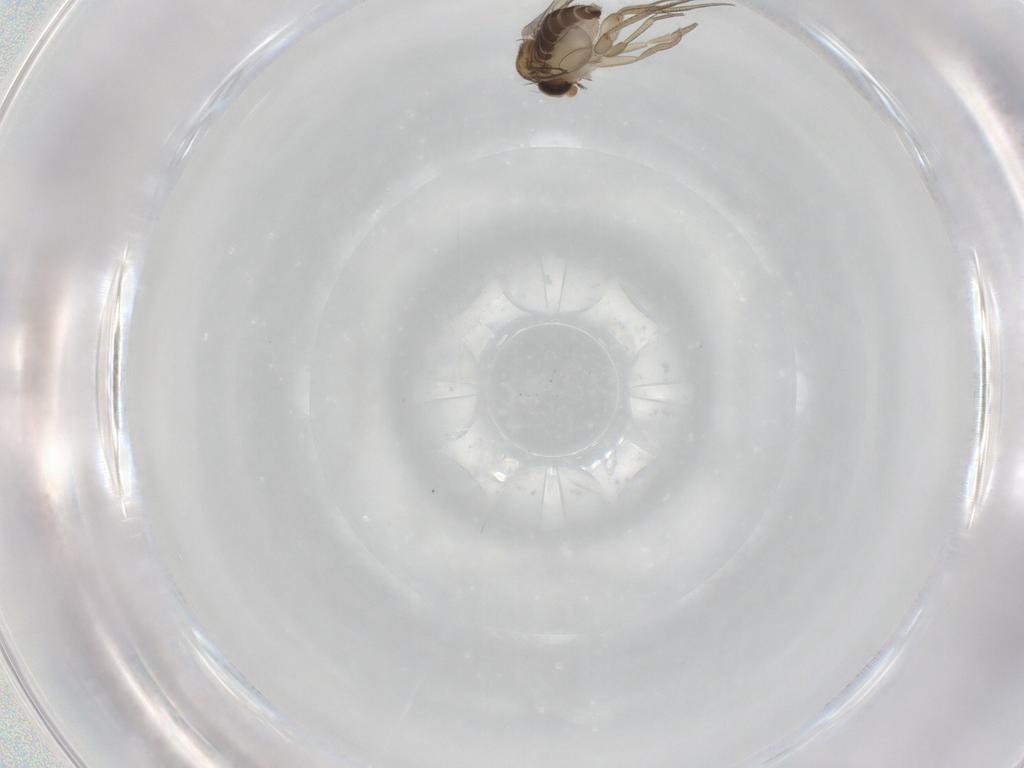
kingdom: Animalia
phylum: Arthropoda
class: Insecta
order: Diptera
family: Phoridae
